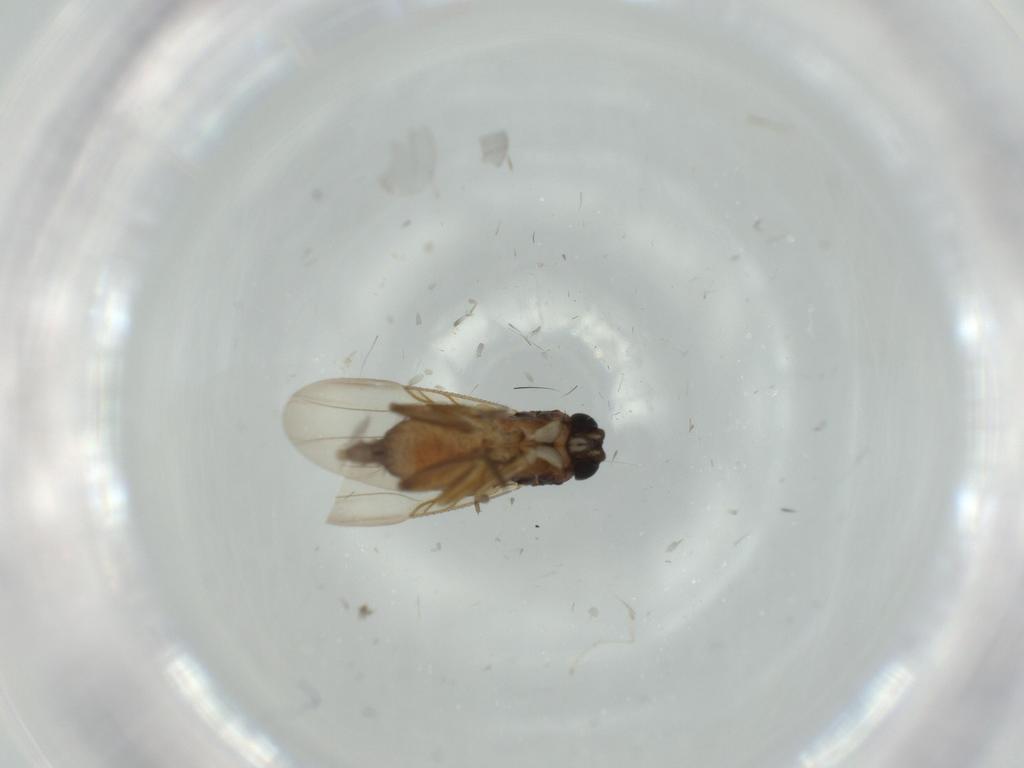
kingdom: Animalia
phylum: Arthropoda
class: Insecta
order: Diptera
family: Phoridae
